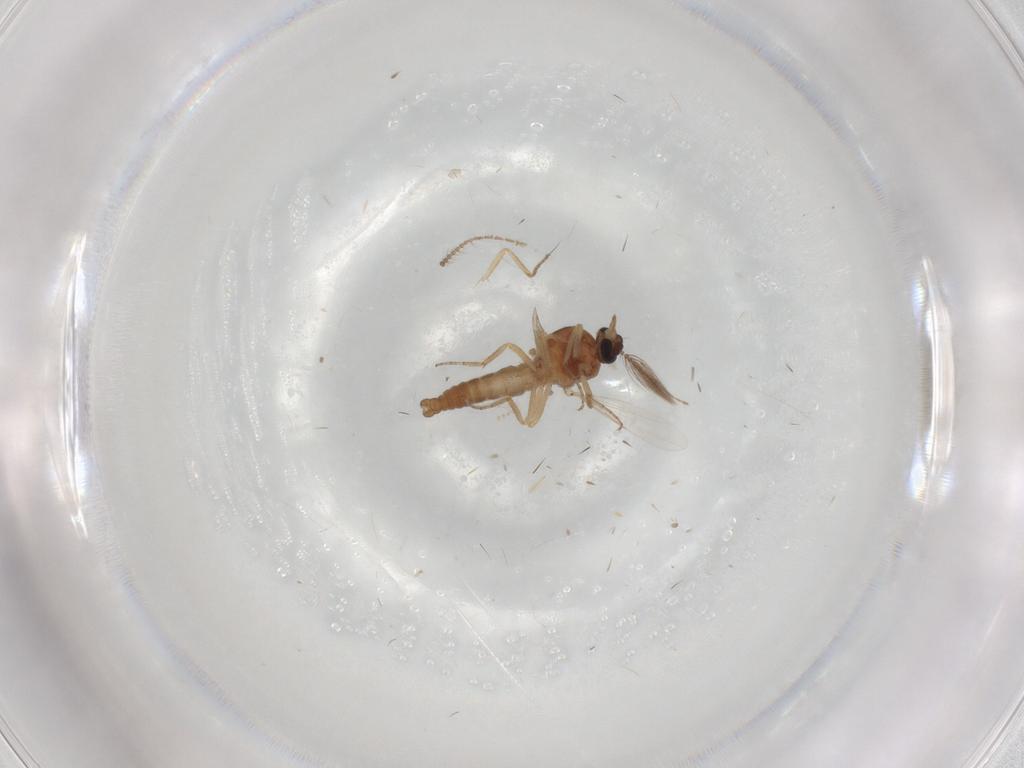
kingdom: Animalia
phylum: Arthropoda
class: Insecta
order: Diptera
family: Ceratopogonidae
